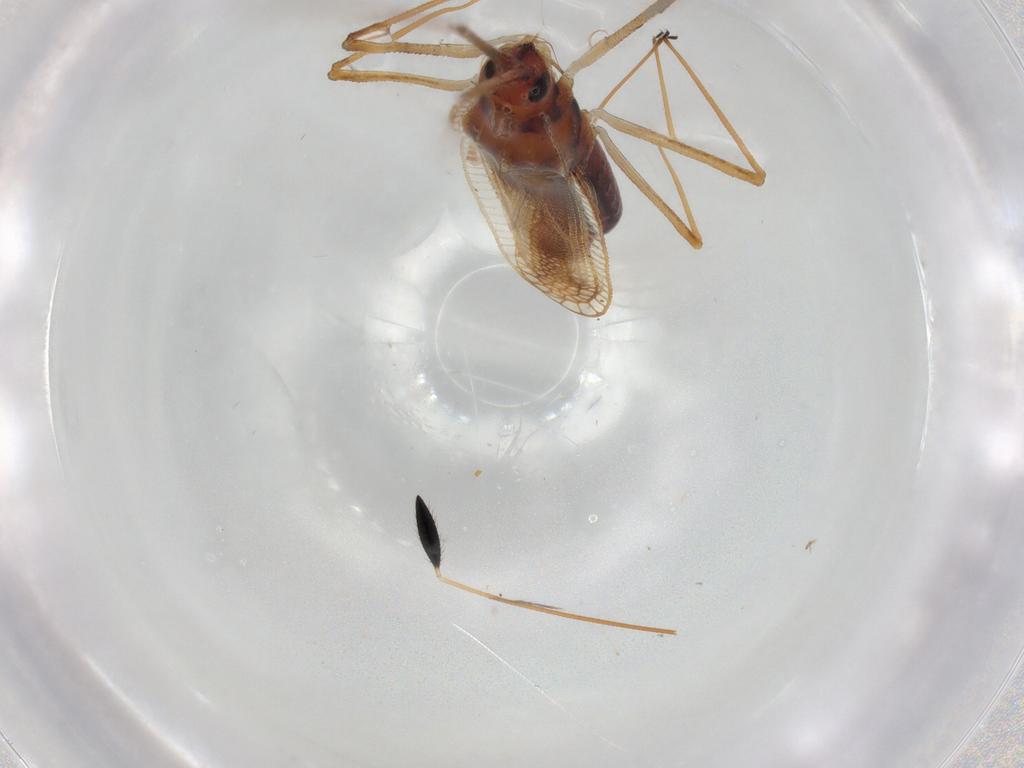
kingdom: Animalia
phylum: Arthropoda
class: Insecta
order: Hemiptera
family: Tingidae
